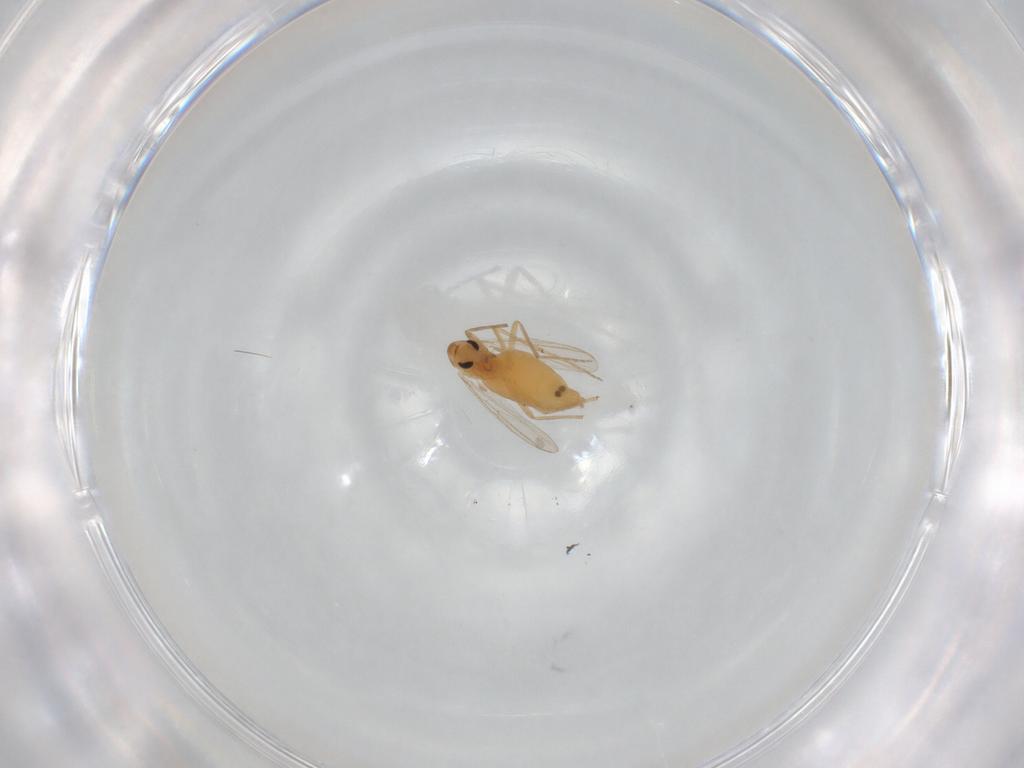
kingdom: Animalia
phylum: Arthropoda
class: Insecta
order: Diptera
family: Chironomidae
